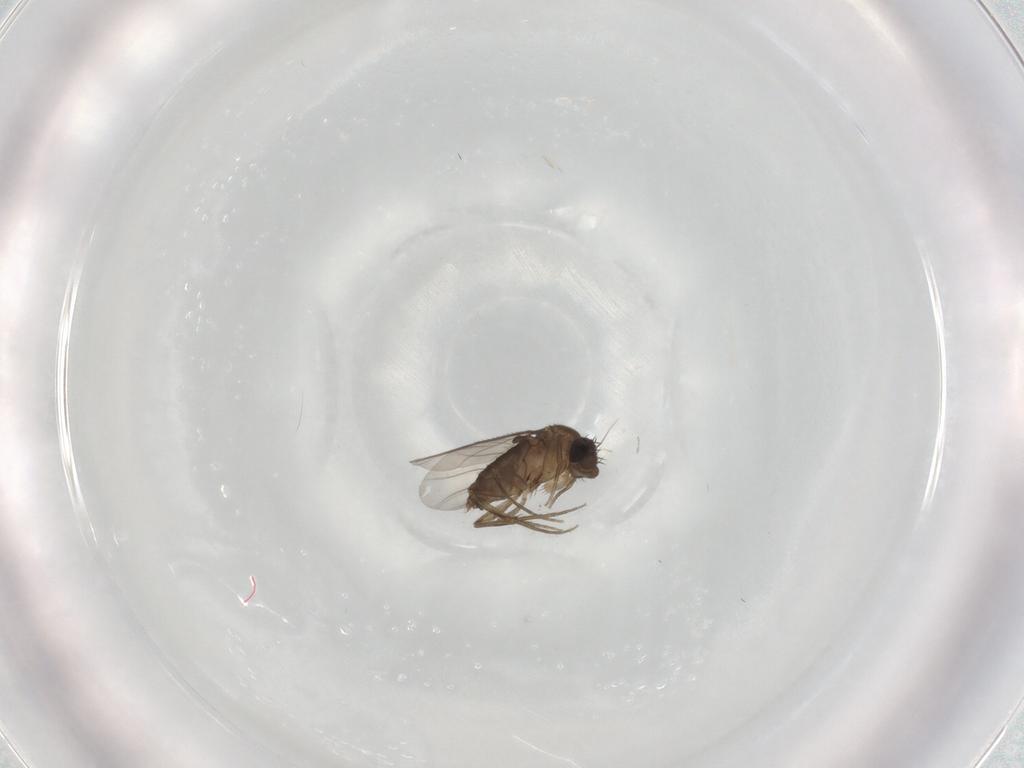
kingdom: Animalia
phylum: Arthropoda
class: Insecta
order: Diptera
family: Phoridae
